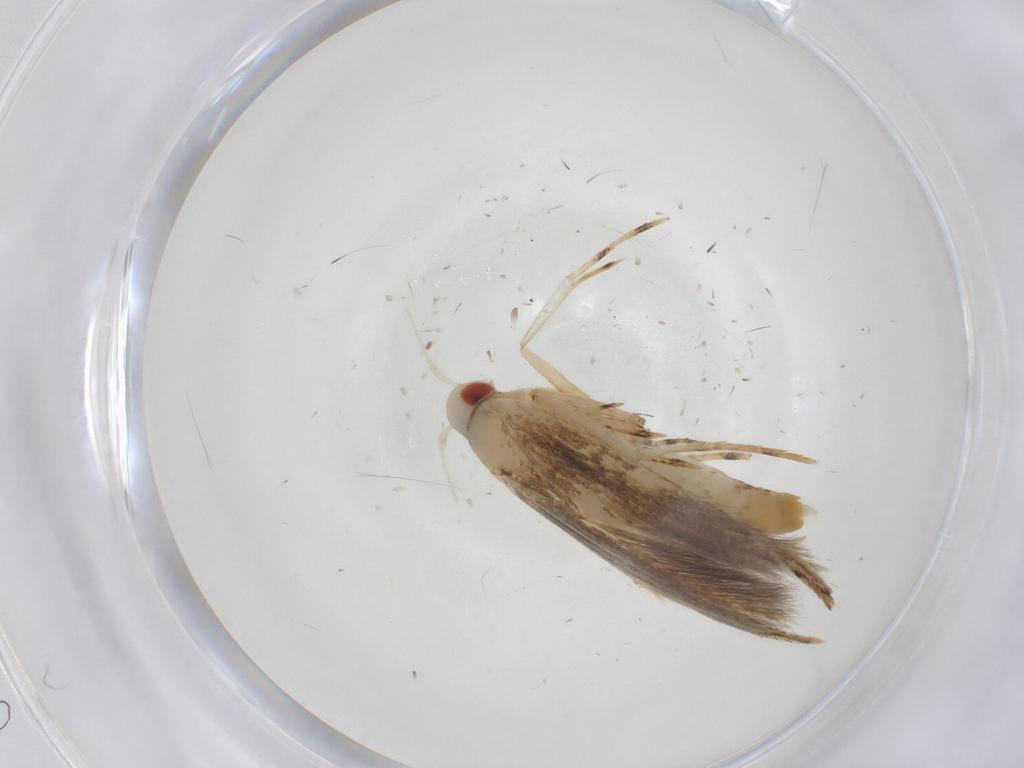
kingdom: Animalia
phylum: Arthropoda
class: Insecta
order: Lepidoptera
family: Cosmopterigidae
